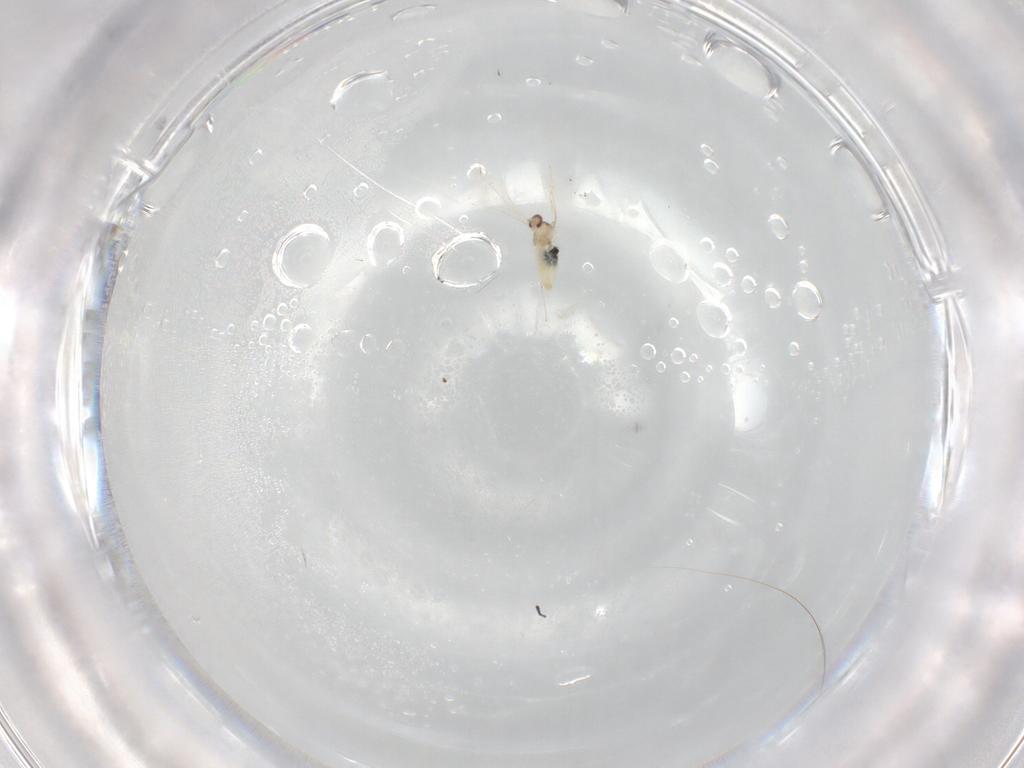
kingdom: Animalia
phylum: Arthropoda
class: Insecta
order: Diptera
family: Cecidomyiidae
